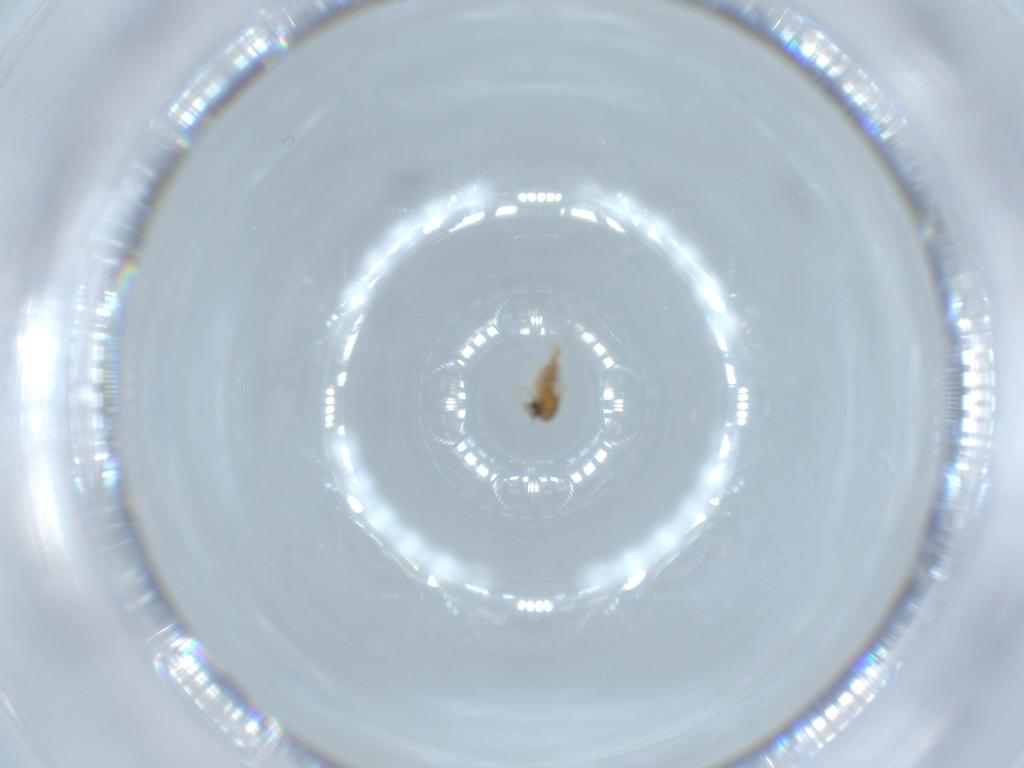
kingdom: Animalia
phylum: Arthropoda
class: Insecta
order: Diptera
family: Cecidomyiidae
